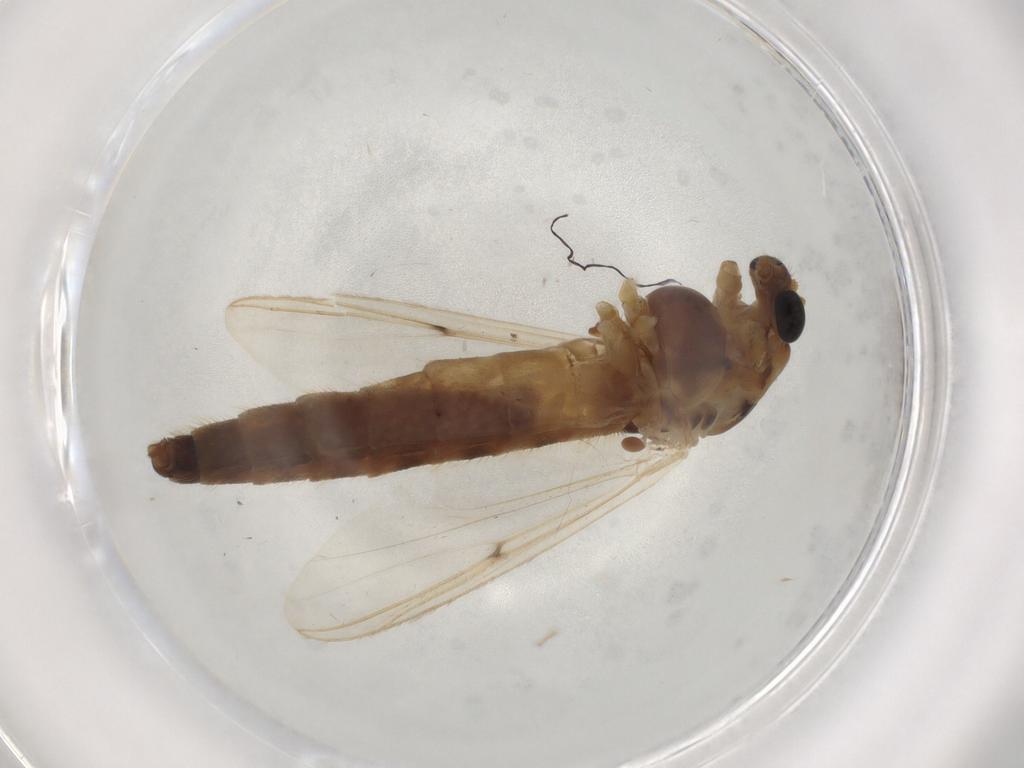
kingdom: Animalia
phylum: Arthropoda
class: Insecta
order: Diptera
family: Chironomidae
